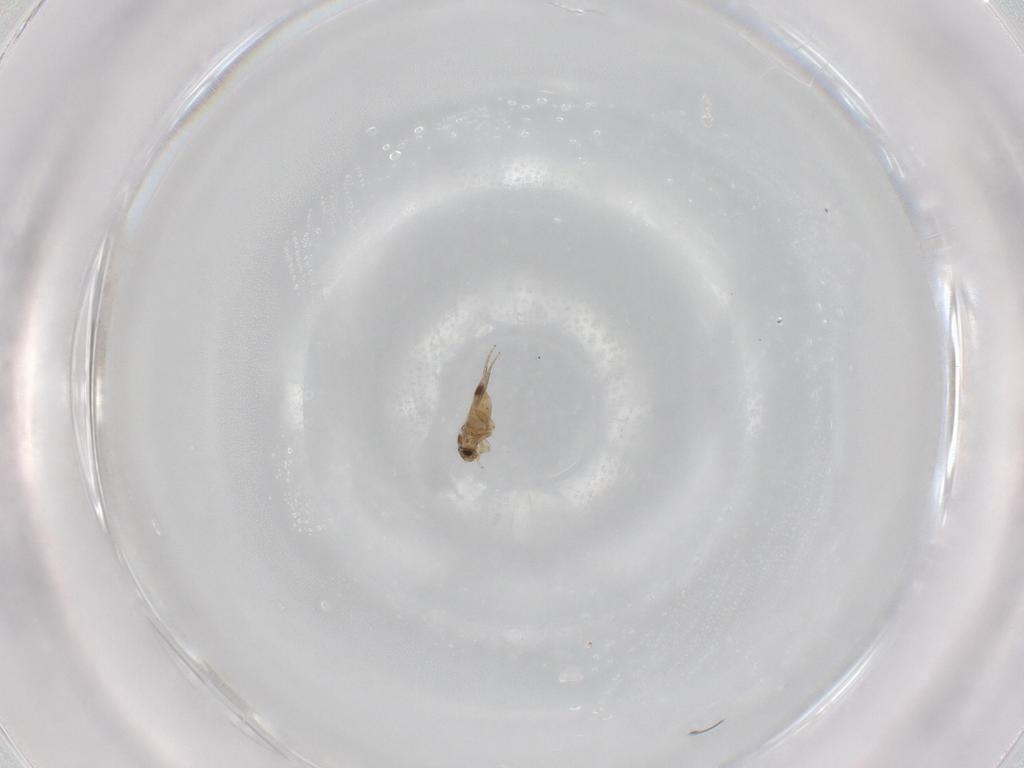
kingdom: Animalia
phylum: Arthropoda
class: Insecta
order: Diptera
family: Phoridae
